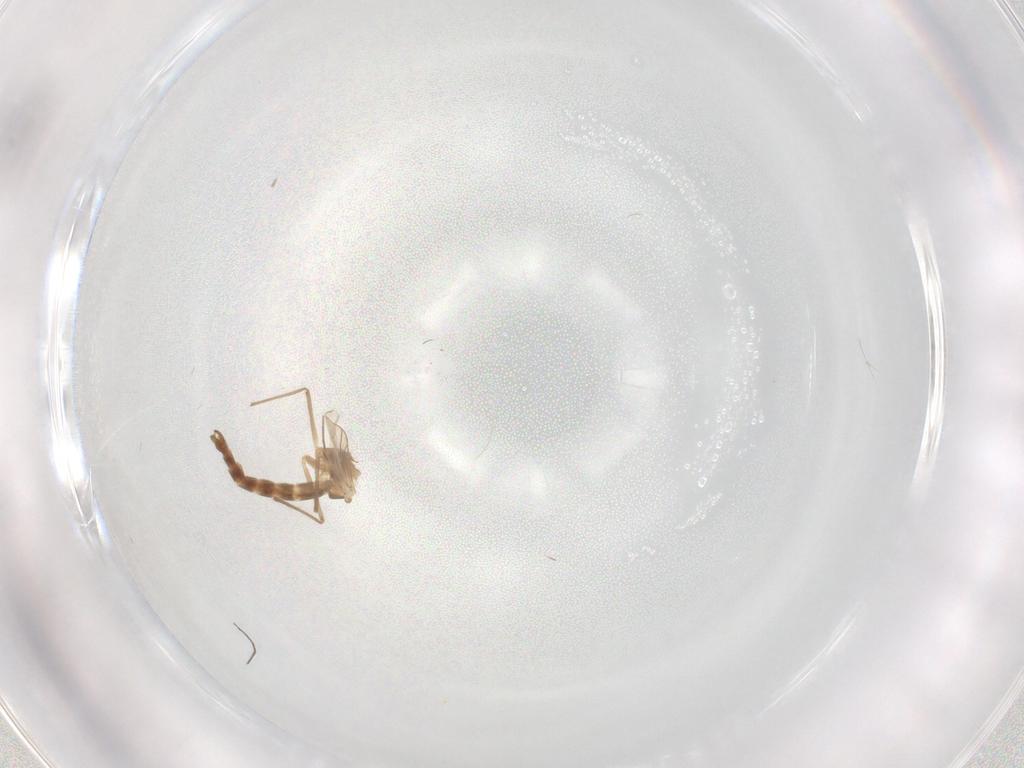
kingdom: Animalia
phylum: Arthropoda
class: Insecta
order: Diptera
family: Chironomidae
